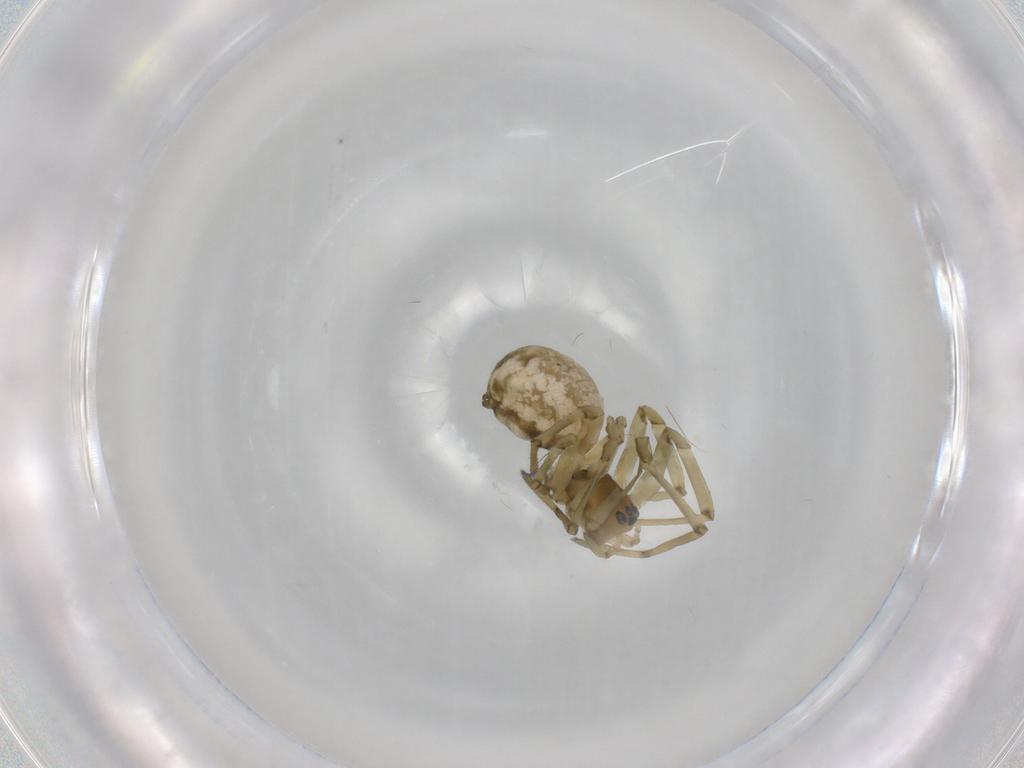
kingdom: Animalia
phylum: Arthropoda
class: Arachnida
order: Araneae
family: Linyphiidae
